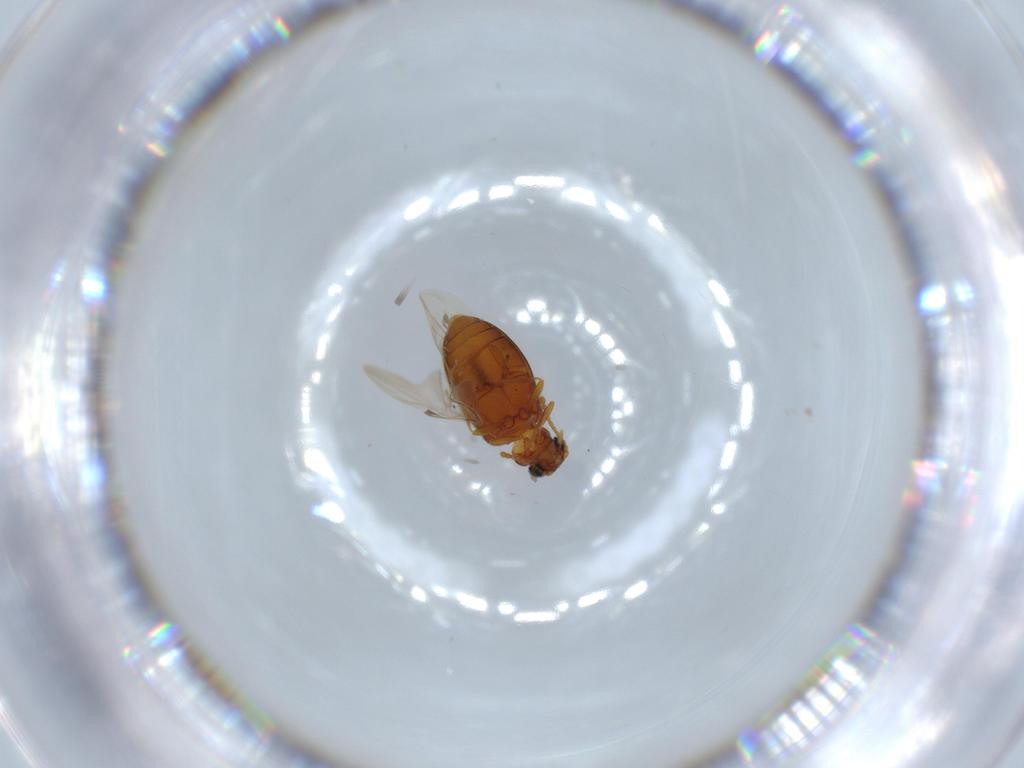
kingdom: Animalia
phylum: Arthropoda
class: Insecta
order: Coleoptera
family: Aderidae
